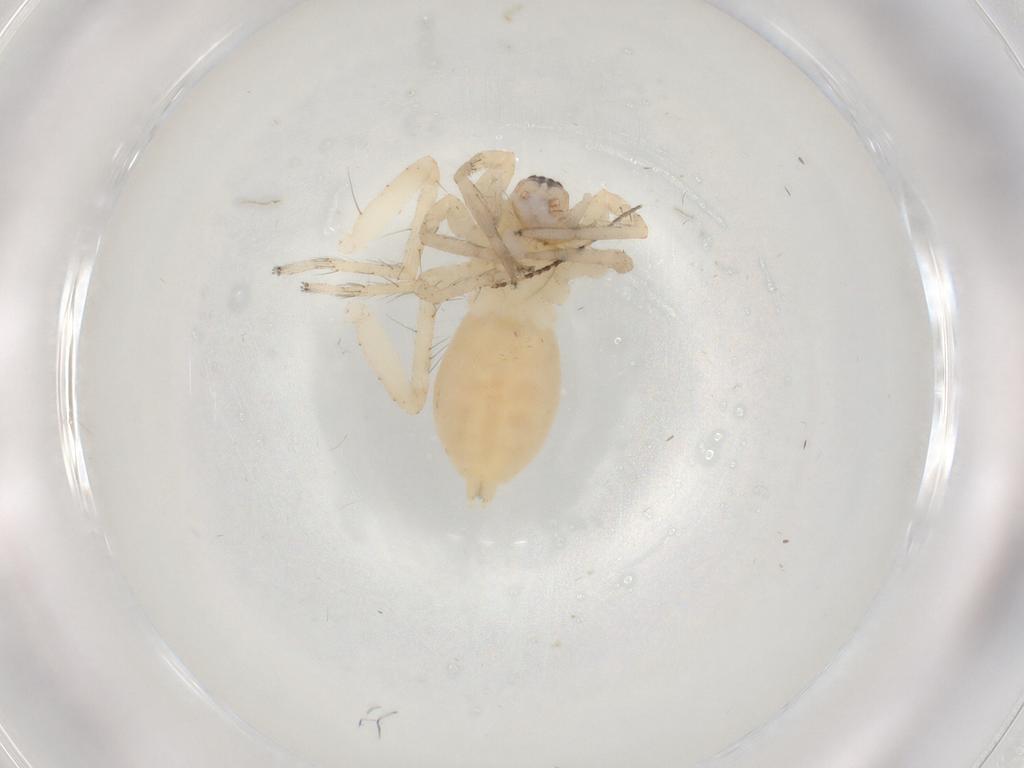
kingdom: Animalia
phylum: Arthropoda
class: Arachnida
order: Araneae
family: Anyphaenidae
